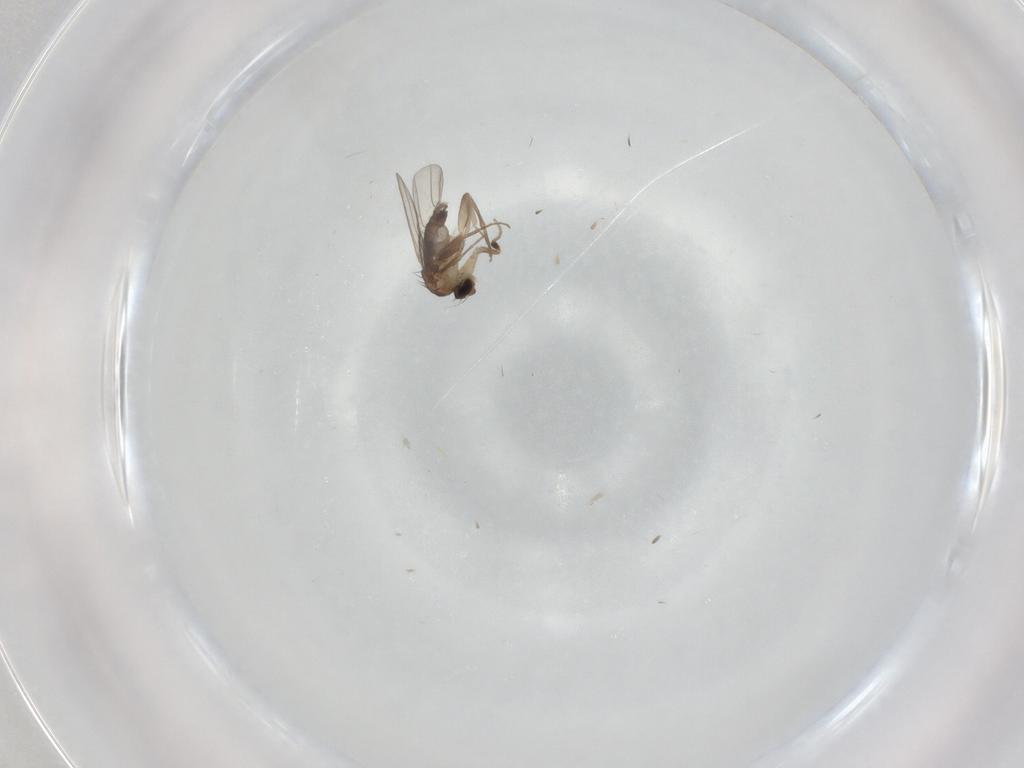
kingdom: Animalia
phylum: Arthropoda
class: Insecta
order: Diptera
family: Phoridae
